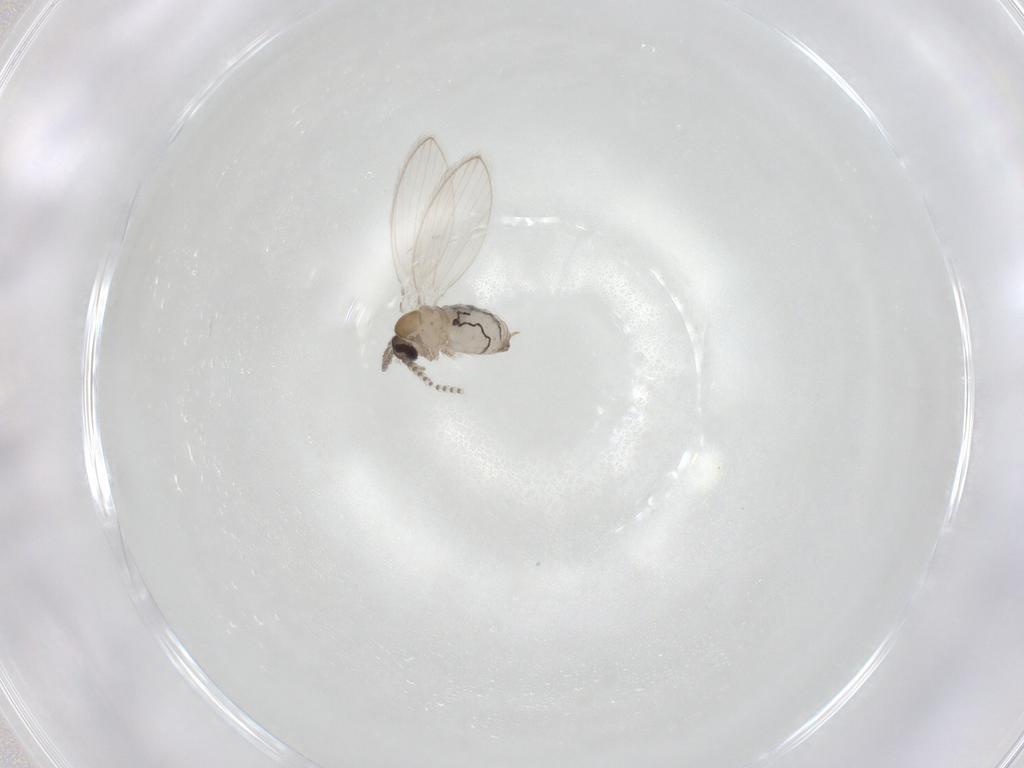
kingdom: Animalia
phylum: Arthropoda
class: Insecta
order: Diptera
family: Psychodidae
